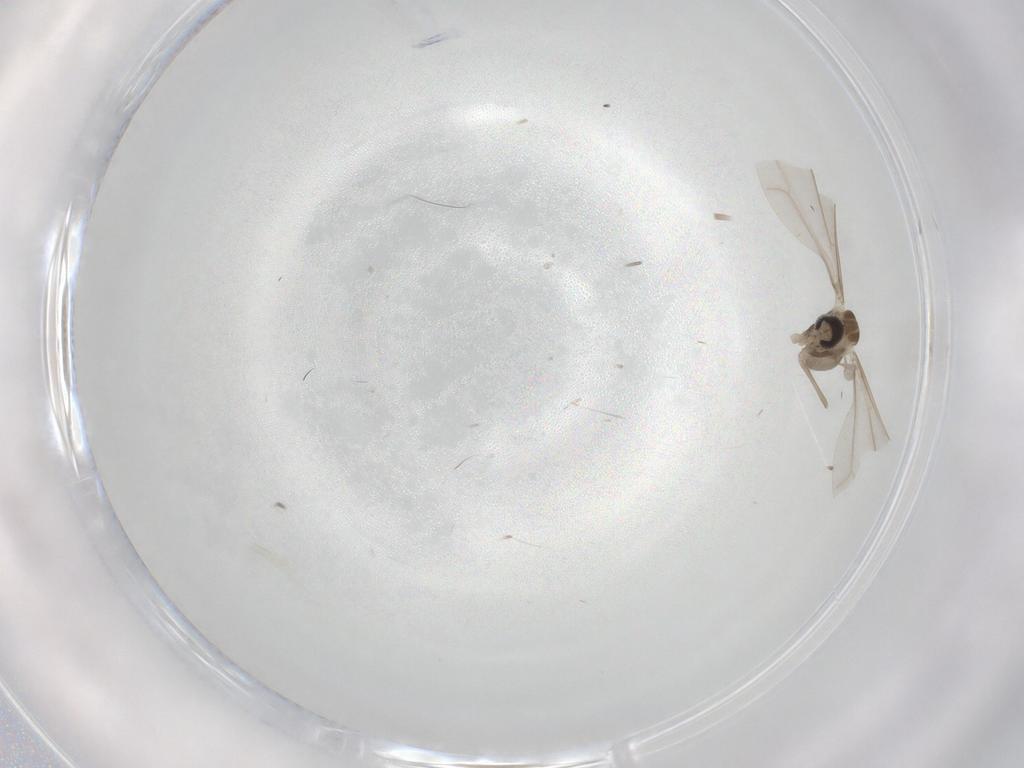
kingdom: Animalia
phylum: Arthropoda
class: Insecta
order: Diptera
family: Cecidomyiidae
